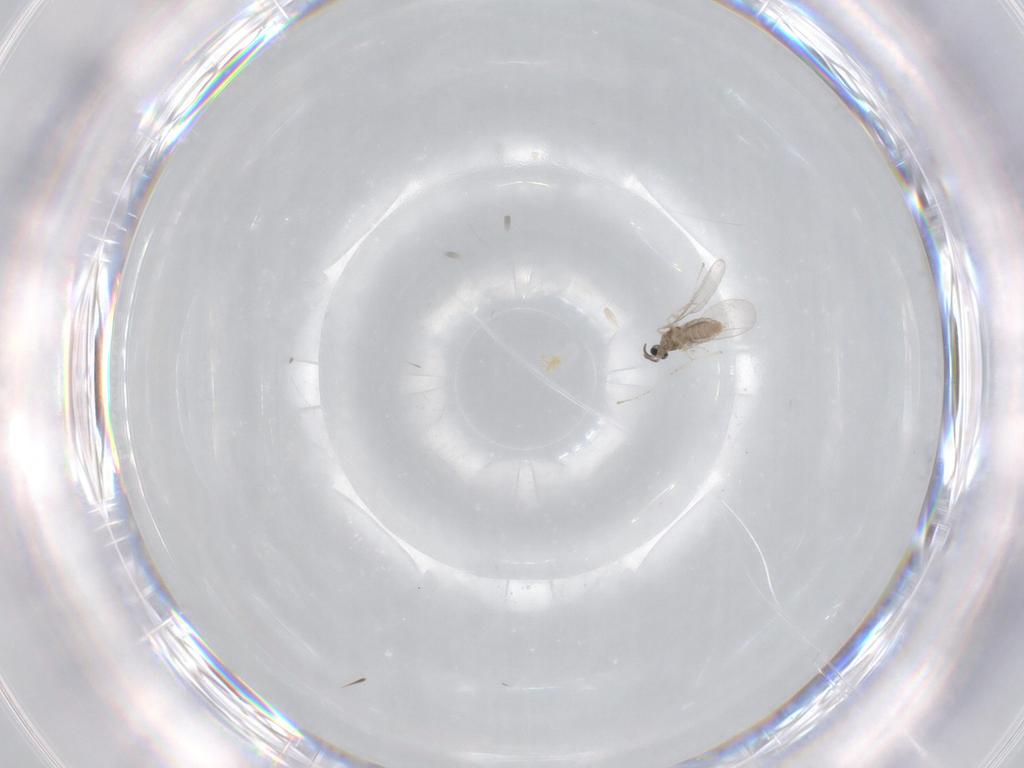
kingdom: Animalia
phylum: Arthropoda
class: Insecta
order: Diptera
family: Cecidomyiidae
